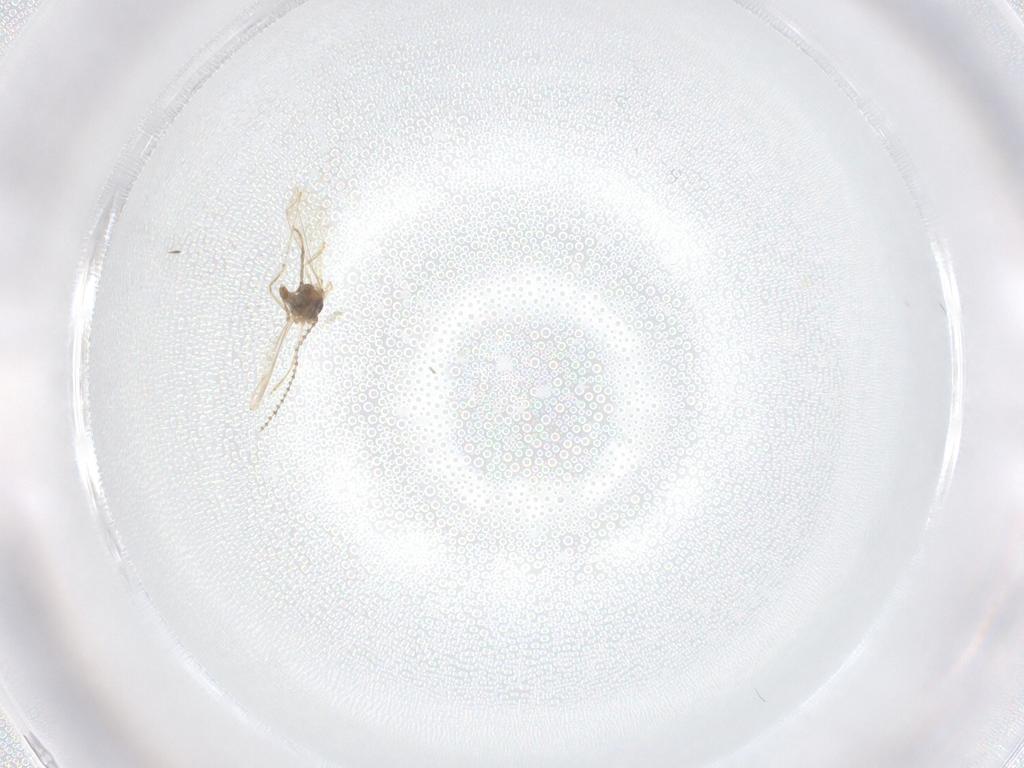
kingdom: Animalia
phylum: Arthropoda
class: Insecta
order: Diptera
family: Cecidomyiidae
